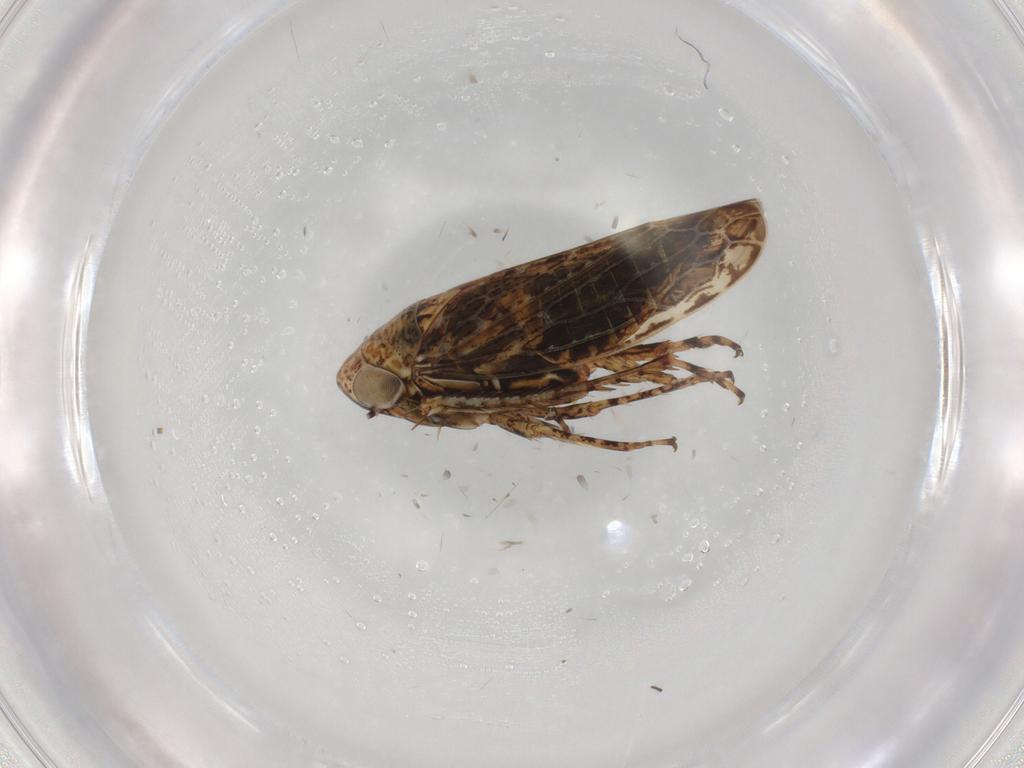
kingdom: Animalia
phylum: Arthropoda
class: Insecta
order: Hemiptera
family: Cicadellidae
